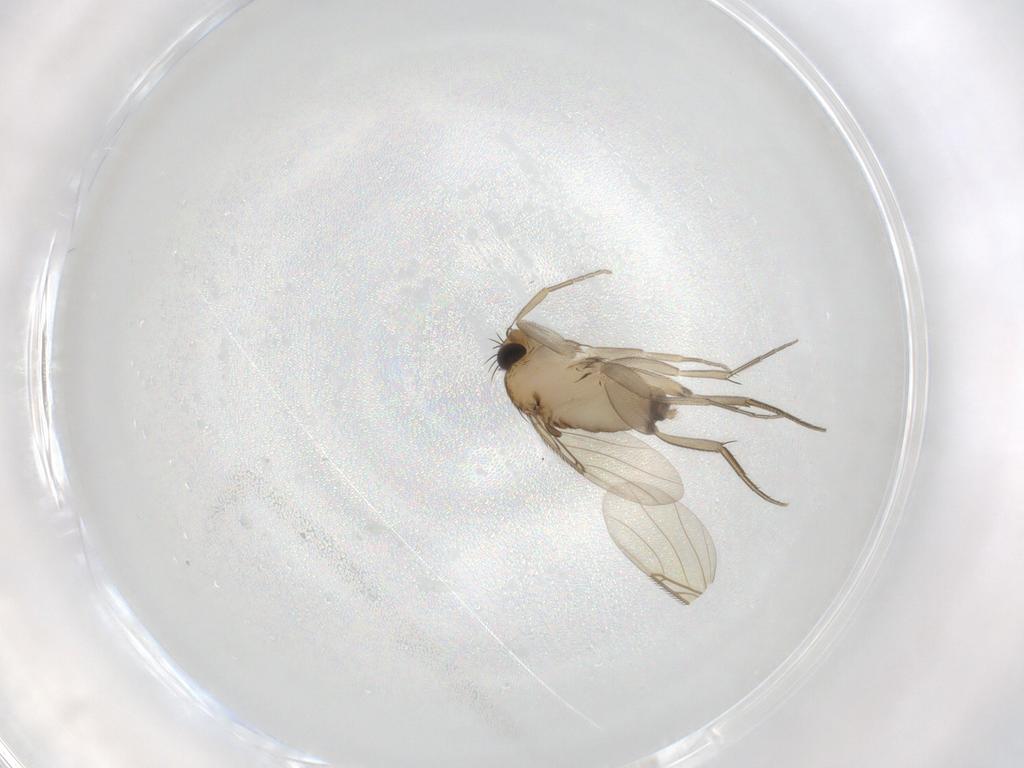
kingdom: Animalia
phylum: Arthropoda
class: Insecta
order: Diptera
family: Phoridae
